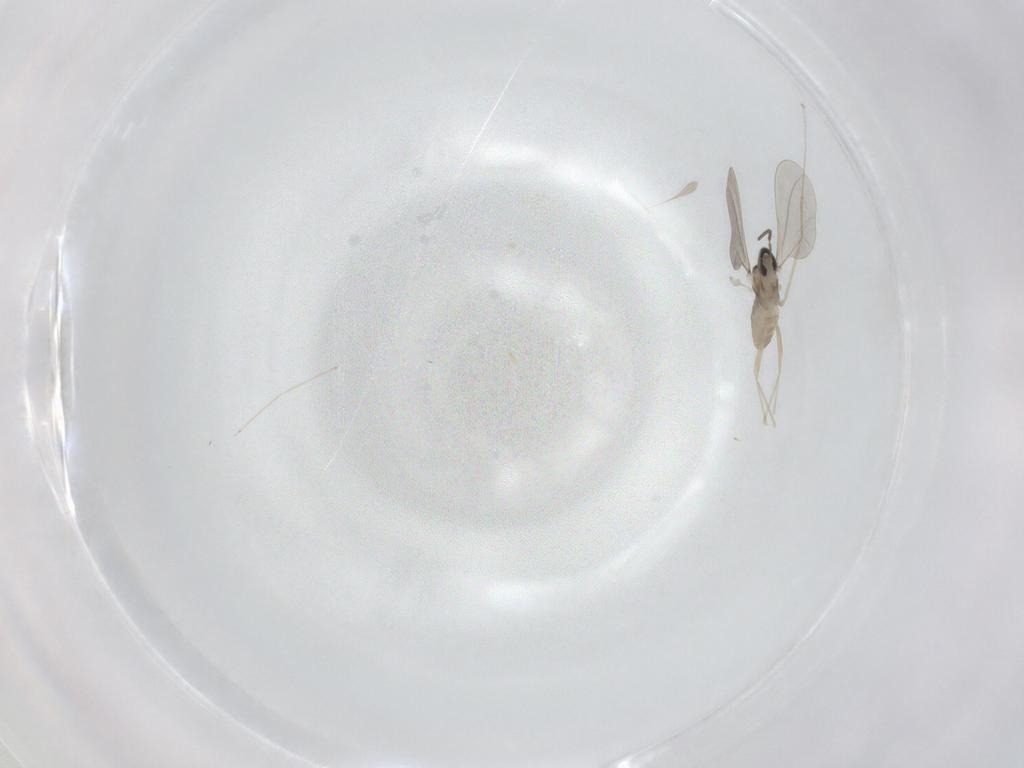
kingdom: Animalia
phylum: Arthropoda
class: Insecta
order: Diptera
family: Cecidomyiidae
